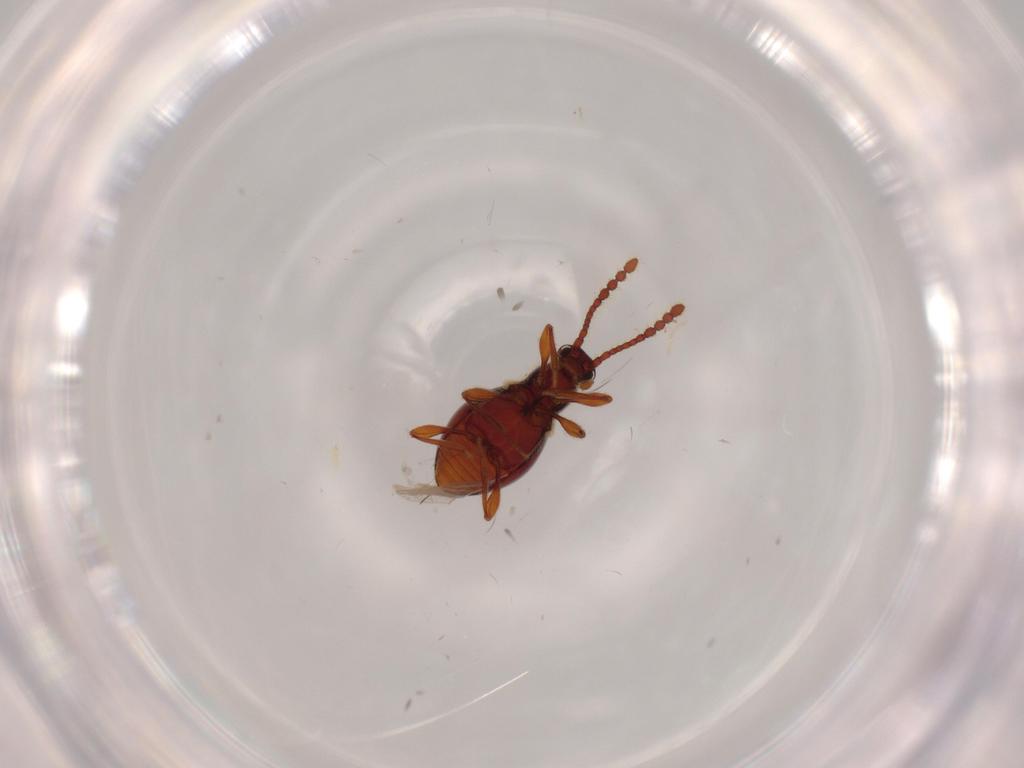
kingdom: Animalia
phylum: Arthropoda
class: Insecta
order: Coleoptera
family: Staphylinidae
